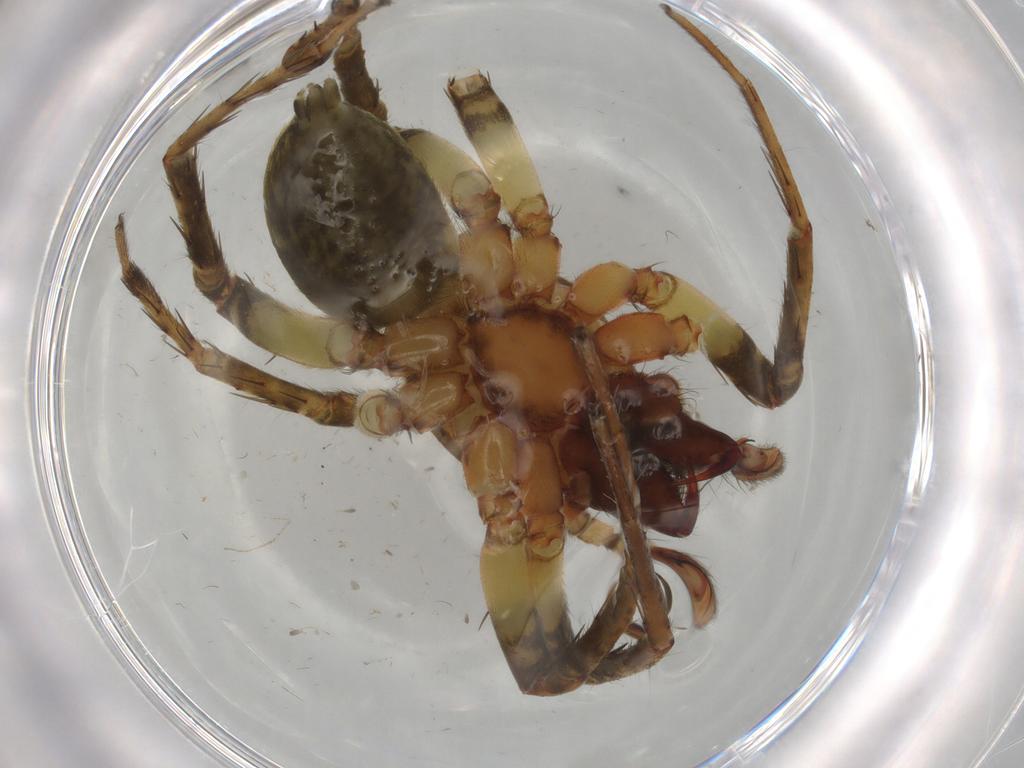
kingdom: Animalia
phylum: Arthropoda
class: Arachnida
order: Araneae
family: Anyphaenidae
